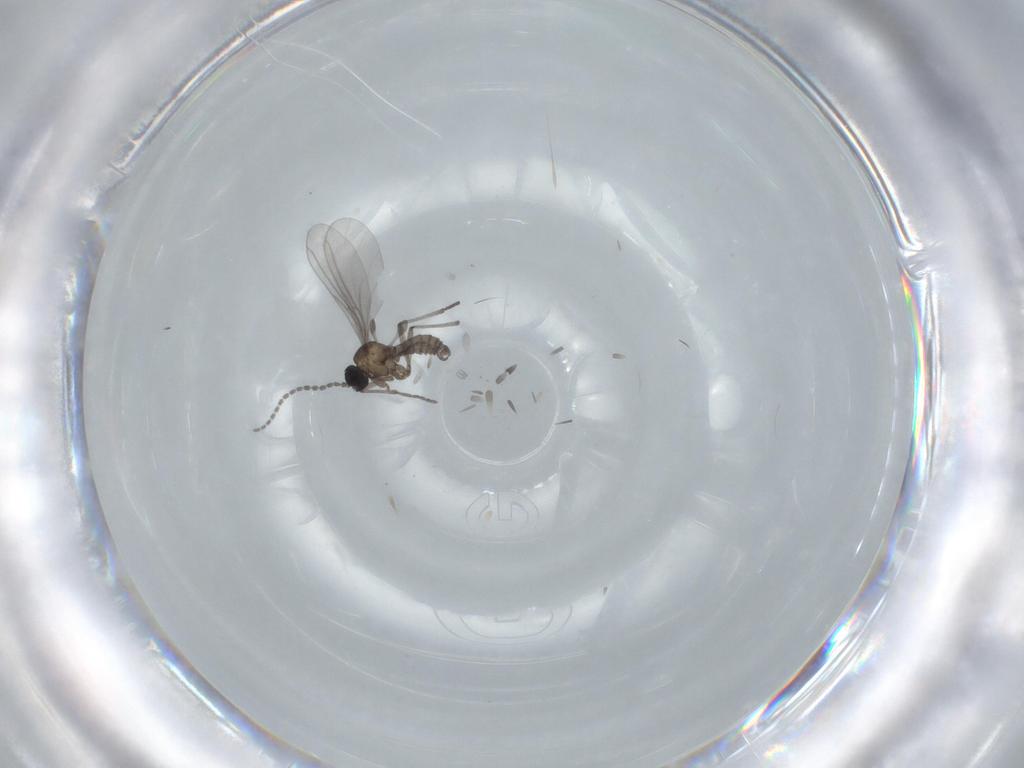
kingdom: Animalia
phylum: Arthropoda
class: Insecta
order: Diptera
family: Sciaridae
